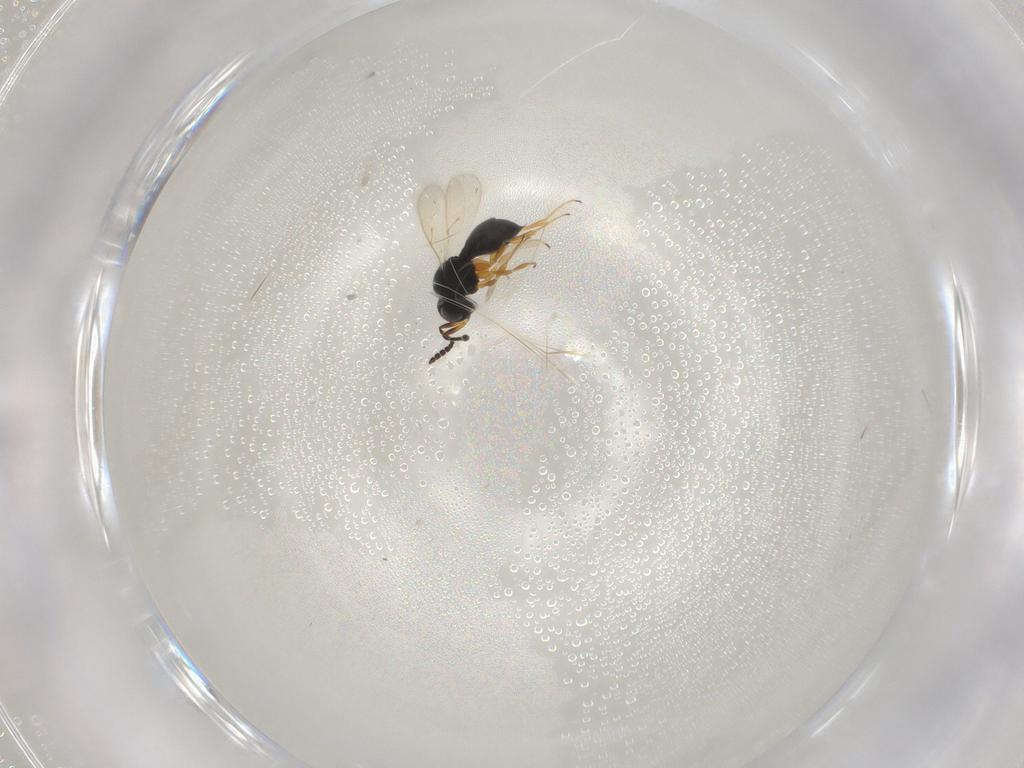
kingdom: Animalia
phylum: Arthropoda
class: Insecta
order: Hymenoptera
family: Scelionidae
